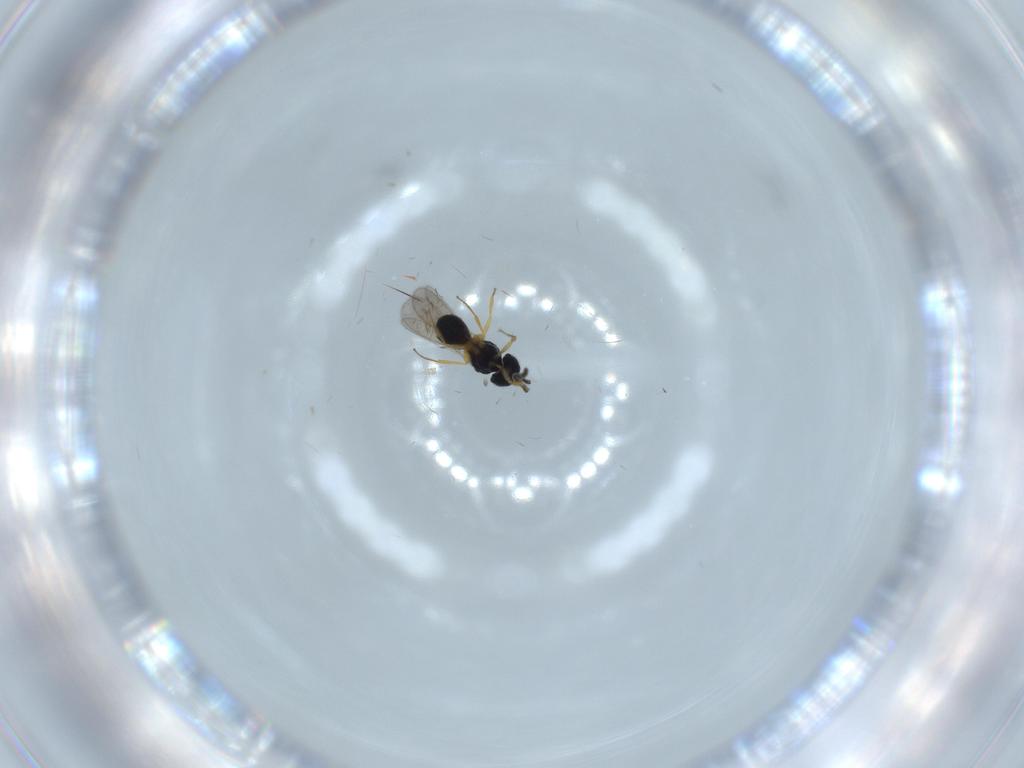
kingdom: Animalia
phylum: Arthropoda
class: Insecta
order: Hymenoptera
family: Scelionidae
